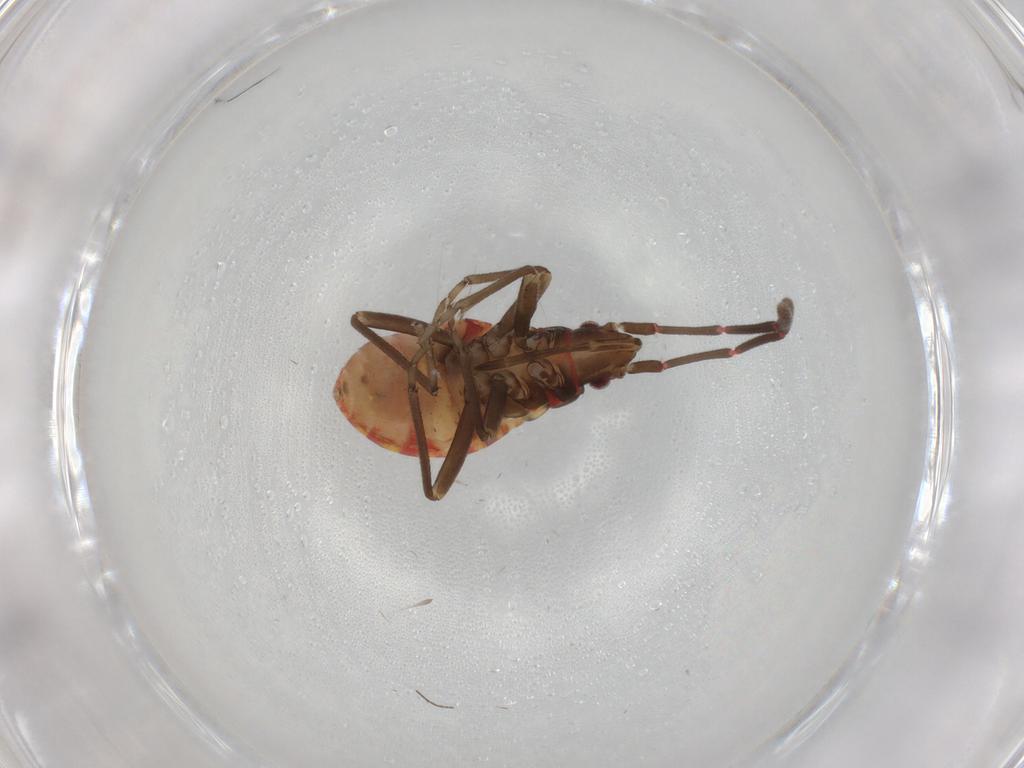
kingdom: Animalia
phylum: Arthropoda
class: Insecta
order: Hemiptera
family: Rhyparochromidae
